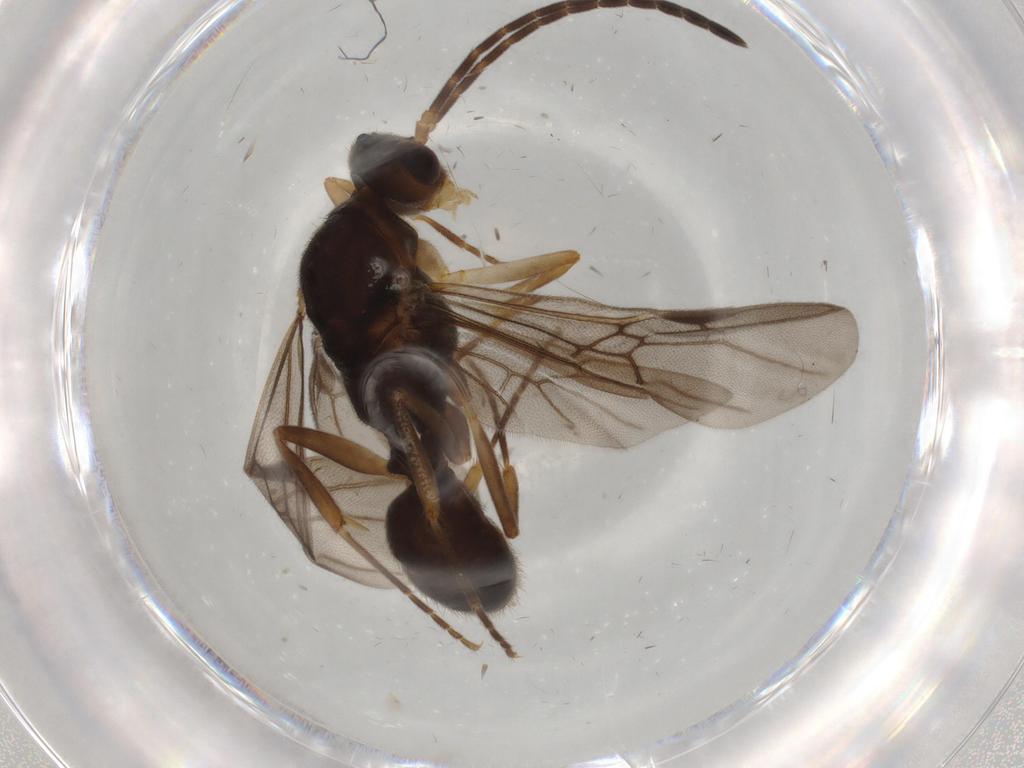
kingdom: Animalia
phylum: Arthropoda
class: Insecta
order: Hymenoptera
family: Formicidae
